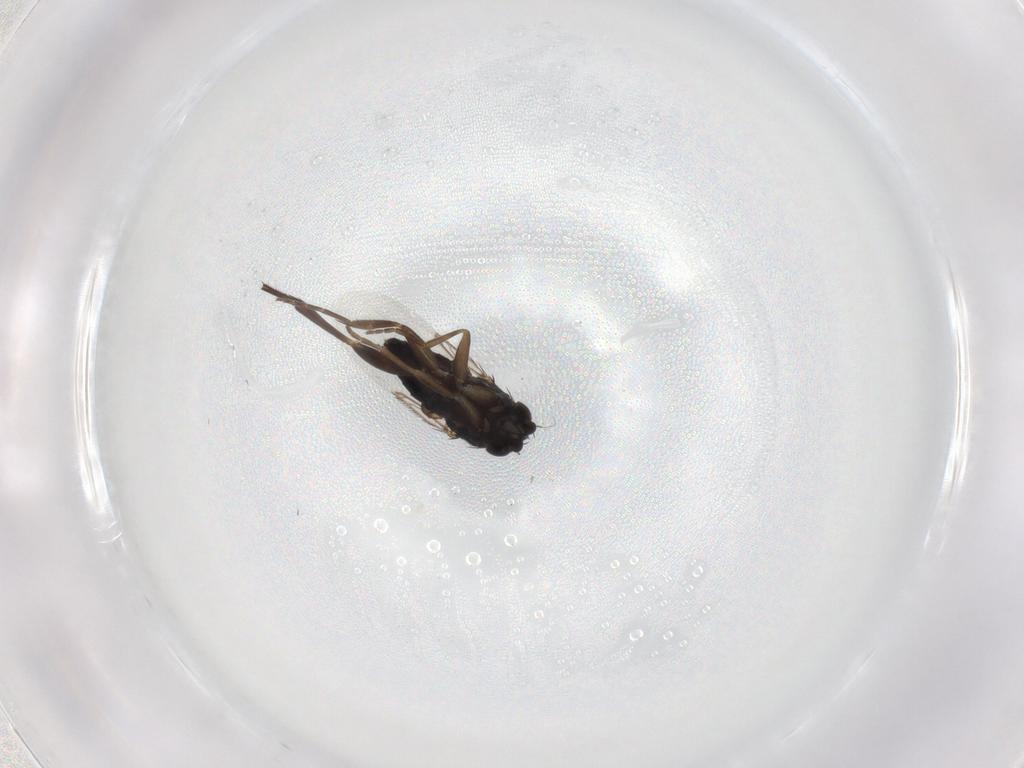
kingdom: Animalia
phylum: Arthropoda
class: Insecta
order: Diptera
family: Phoridae
